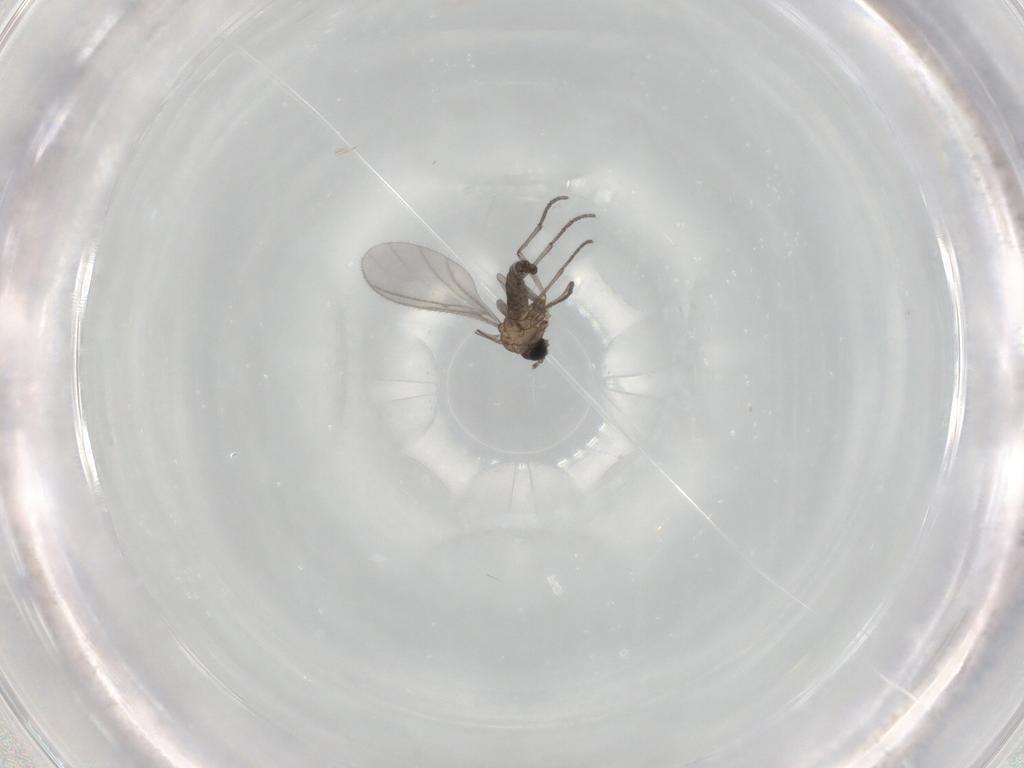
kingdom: Animalia
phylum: Arthropoda
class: Insecta
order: Diptera
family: Sciaridae
